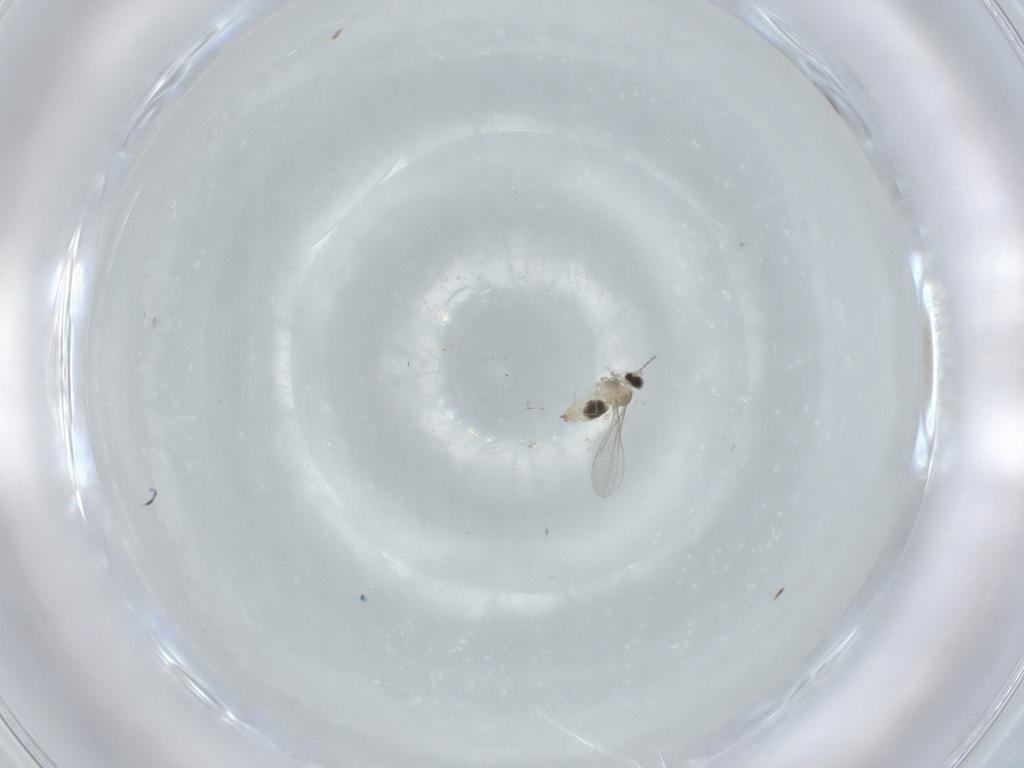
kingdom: Animalia
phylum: Arthropoda
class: Insecta
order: Diptera
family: Cecidomyiidae
